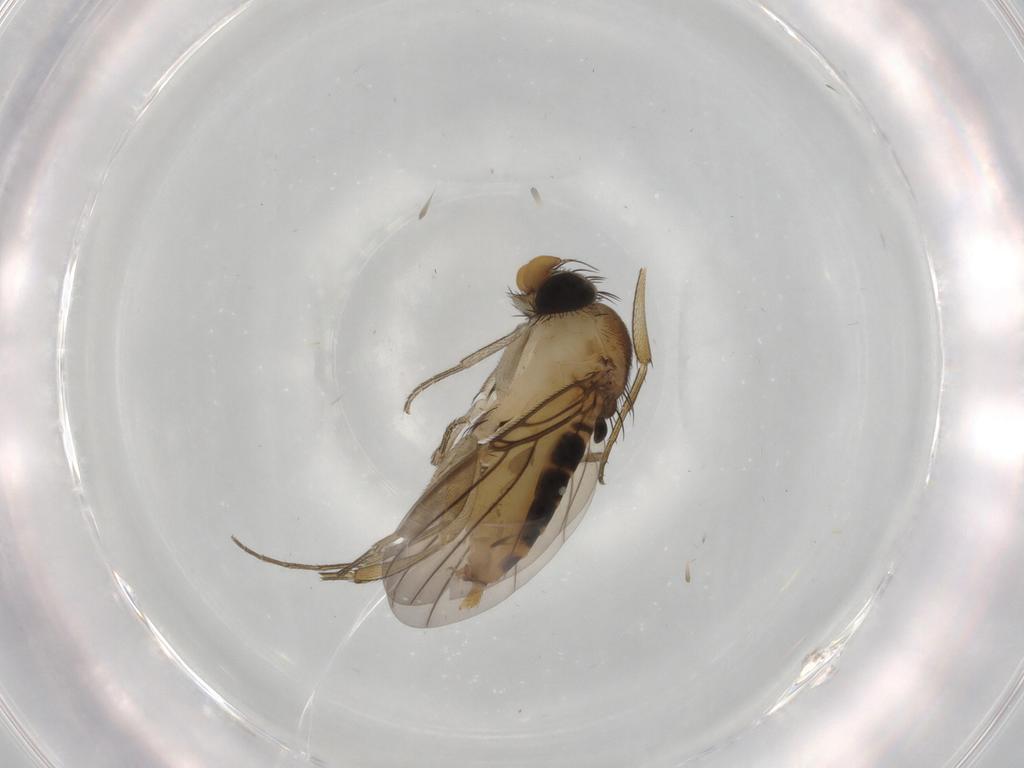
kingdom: Animalia
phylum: Arthropoda
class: Insecta
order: Diptera
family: Phoridae
